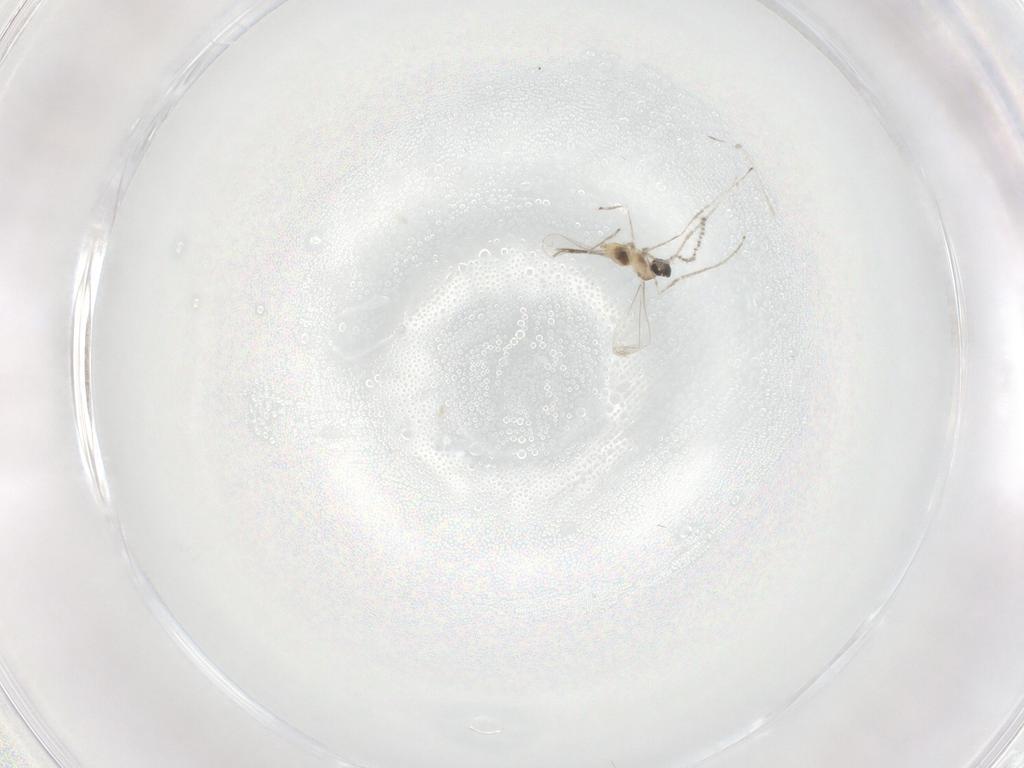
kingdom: Animalia
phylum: Arthropoda
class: Insecta
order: Diptera
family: Cecidomyiidae
